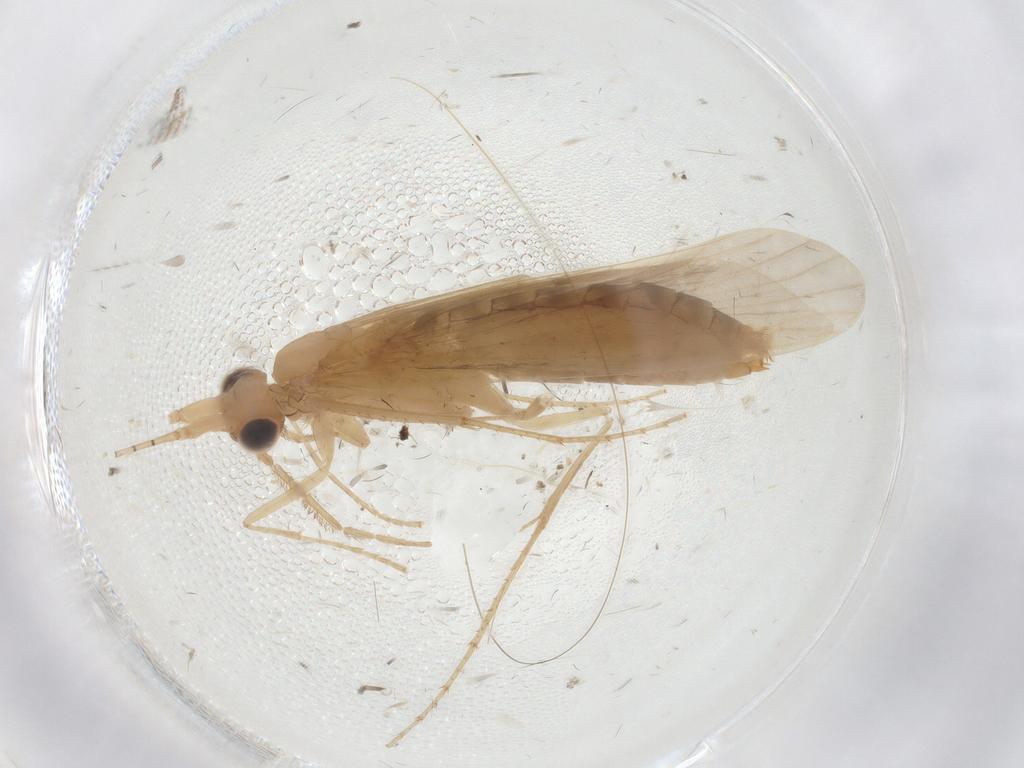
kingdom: Animalia
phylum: Arthropoda
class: Insecta
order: Trichoptera
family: Leptoceridae
